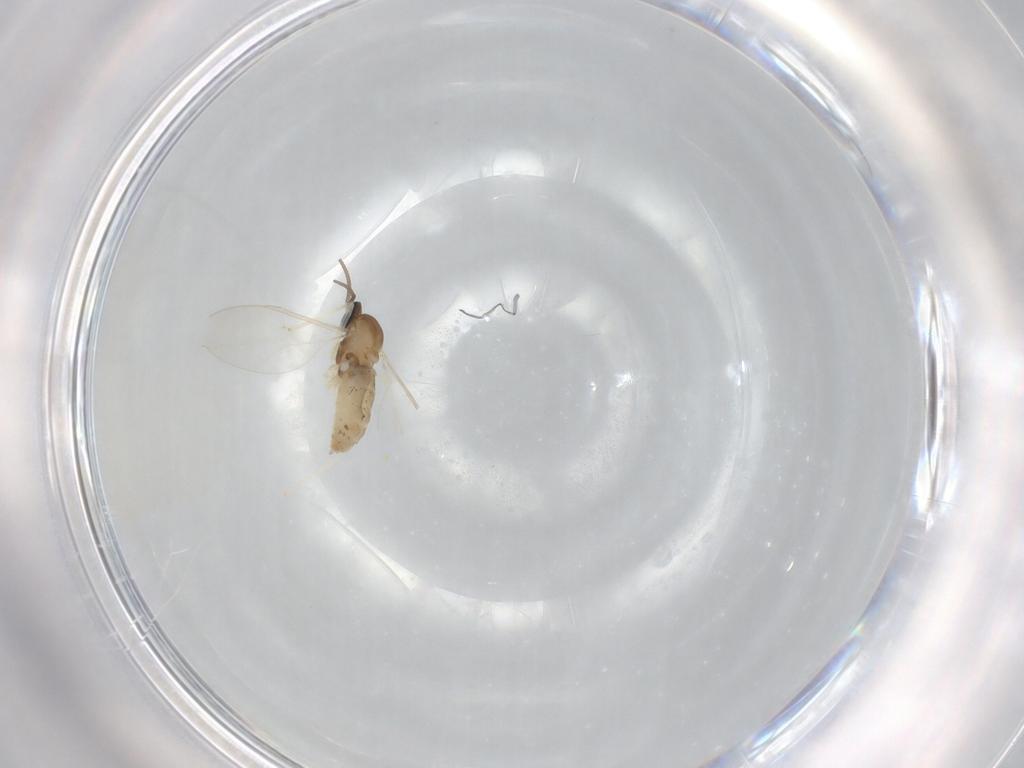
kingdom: Animalia
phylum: Arthropoda
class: Insecta
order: Diptera
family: Cecidomyiidae
